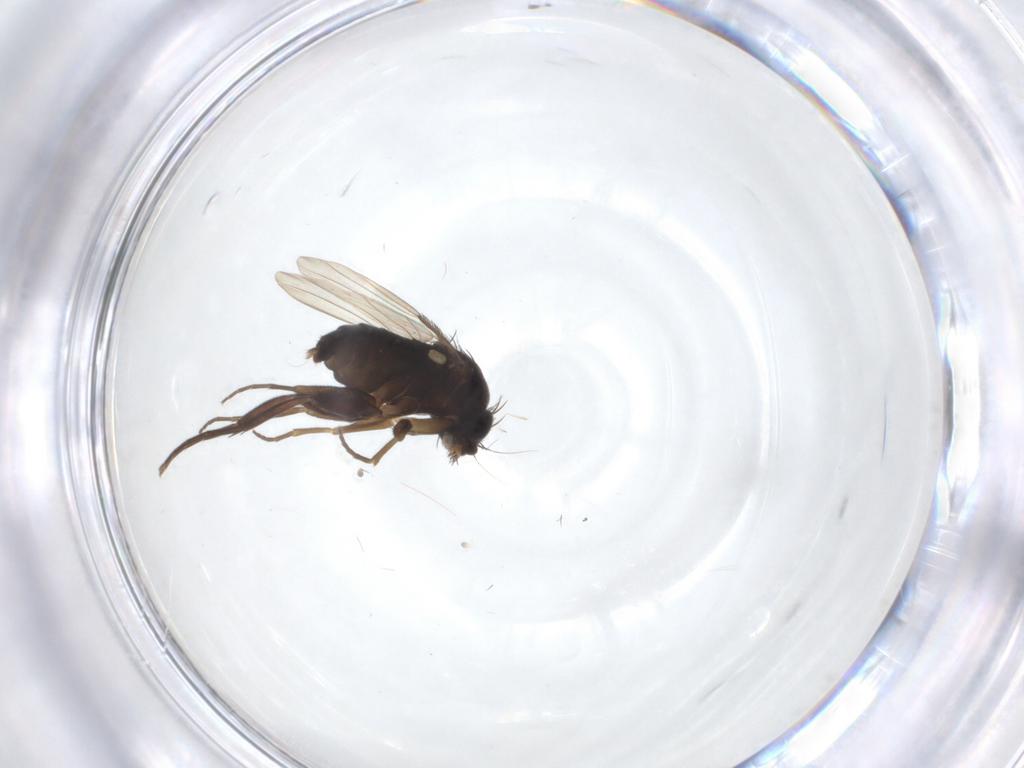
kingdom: Animalia
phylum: Arthropoda
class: Insecta
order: Diptera
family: Phoridae
